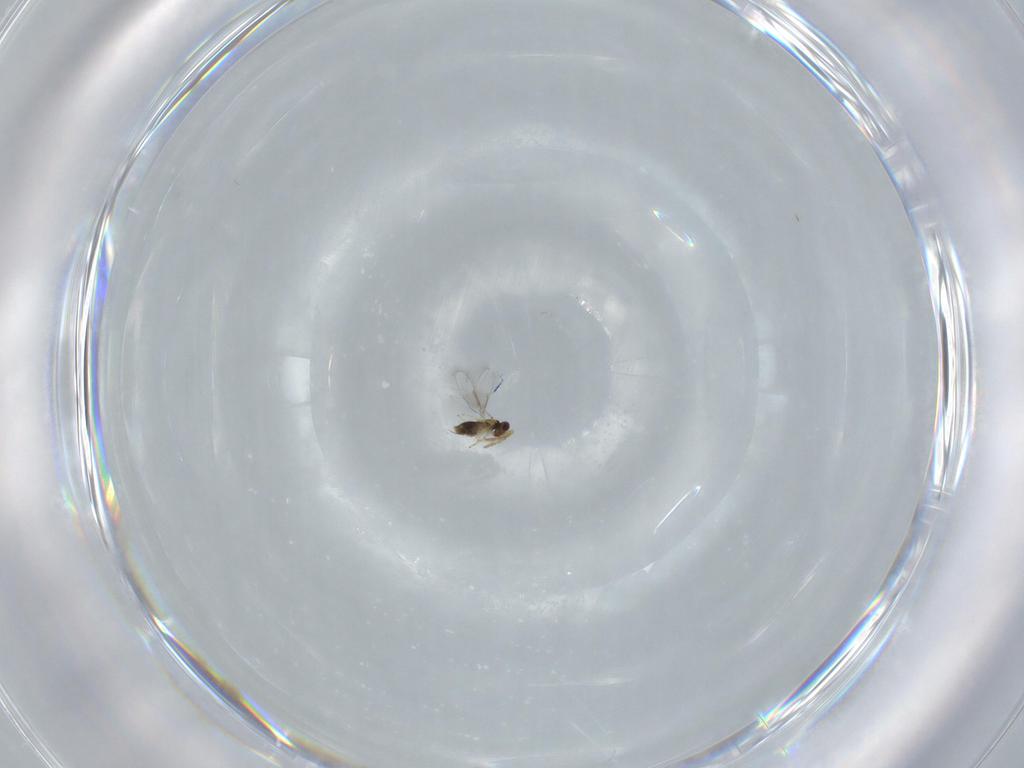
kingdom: Animalia
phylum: Arthropoda
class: Insecta
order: Hymenoptera
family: Aphelinidae
